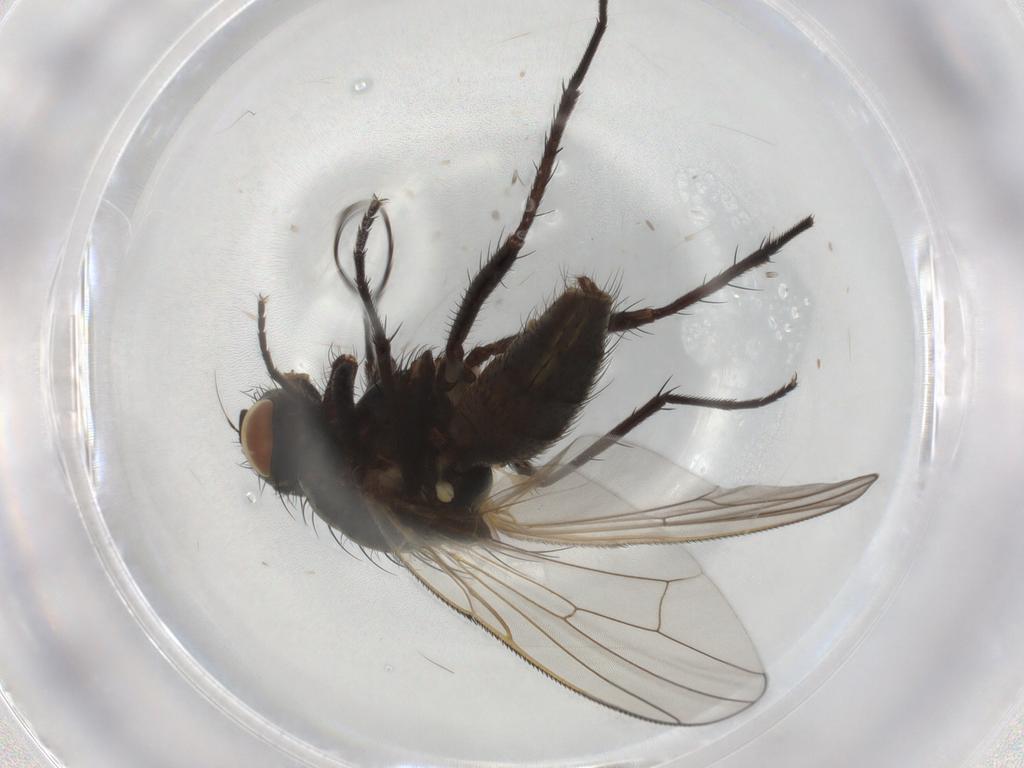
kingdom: Animalia
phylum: Arthropoda
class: Insecta
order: Diptera
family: Anthomyiidae
